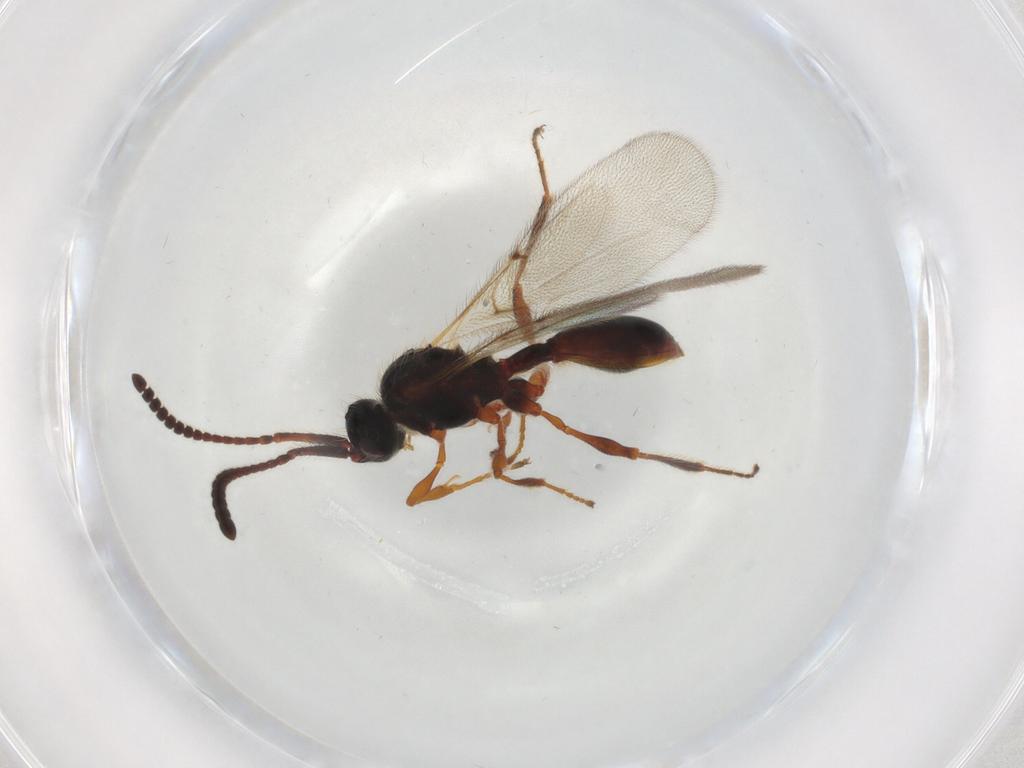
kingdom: Animalia
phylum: Arthropoda
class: Insecta
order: Hymenoptera
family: Diapriidae
